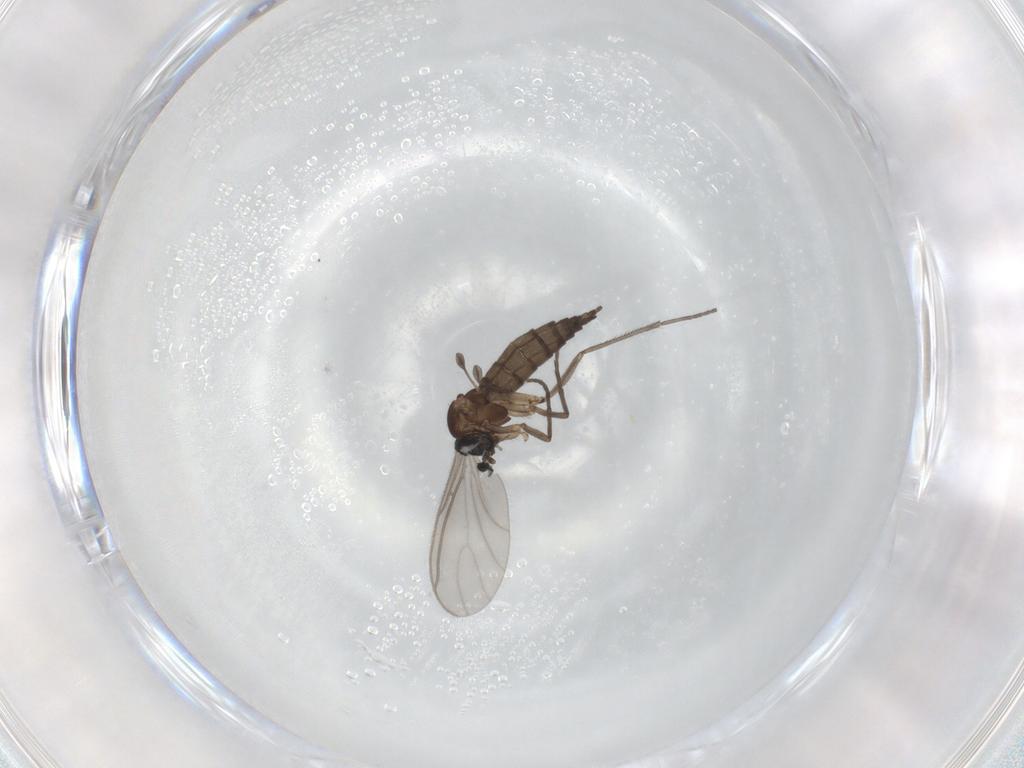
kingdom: Animalia
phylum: Arthropoda
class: Insecta
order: Diptera
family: Sciaridae
